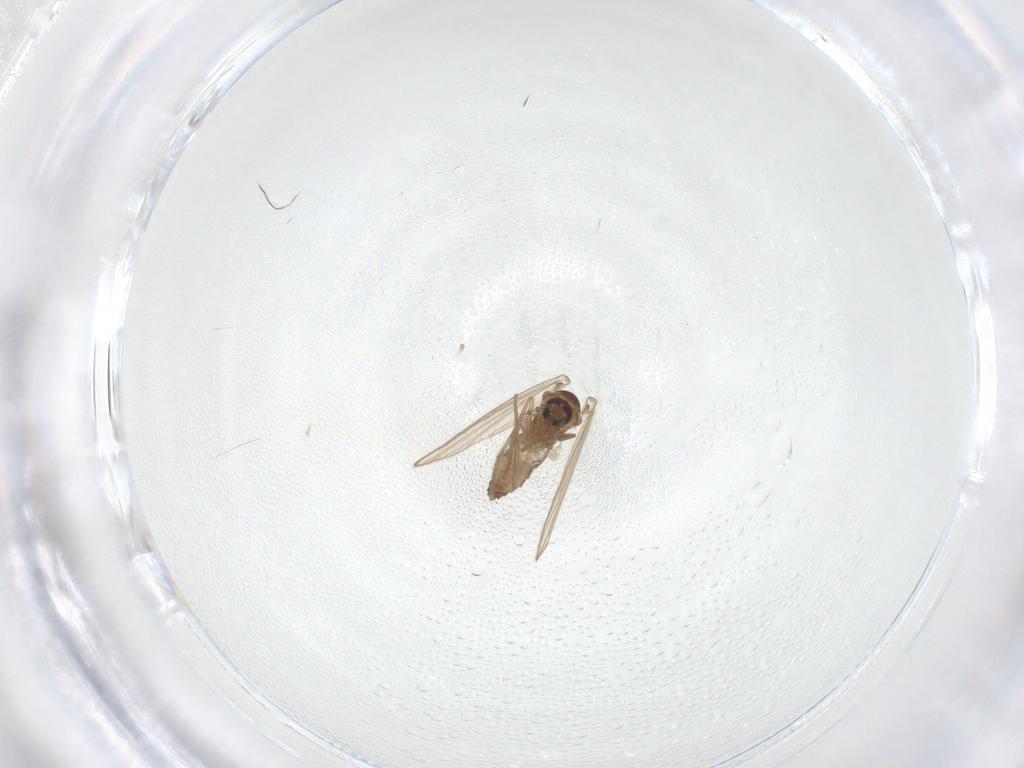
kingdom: Animalia
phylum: Arthropoda
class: Insecta
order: Diptera
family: Psychodidae
